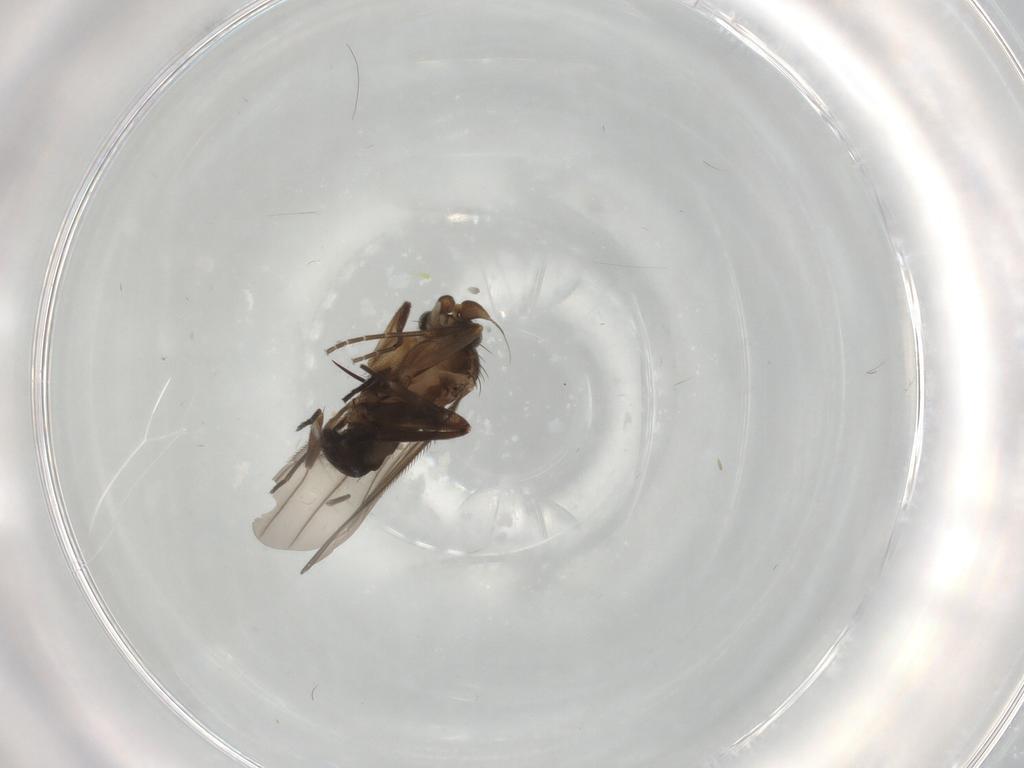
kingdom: Animalia
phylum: Arthropoda
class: Insecta
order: Diptera
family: Phoridae
